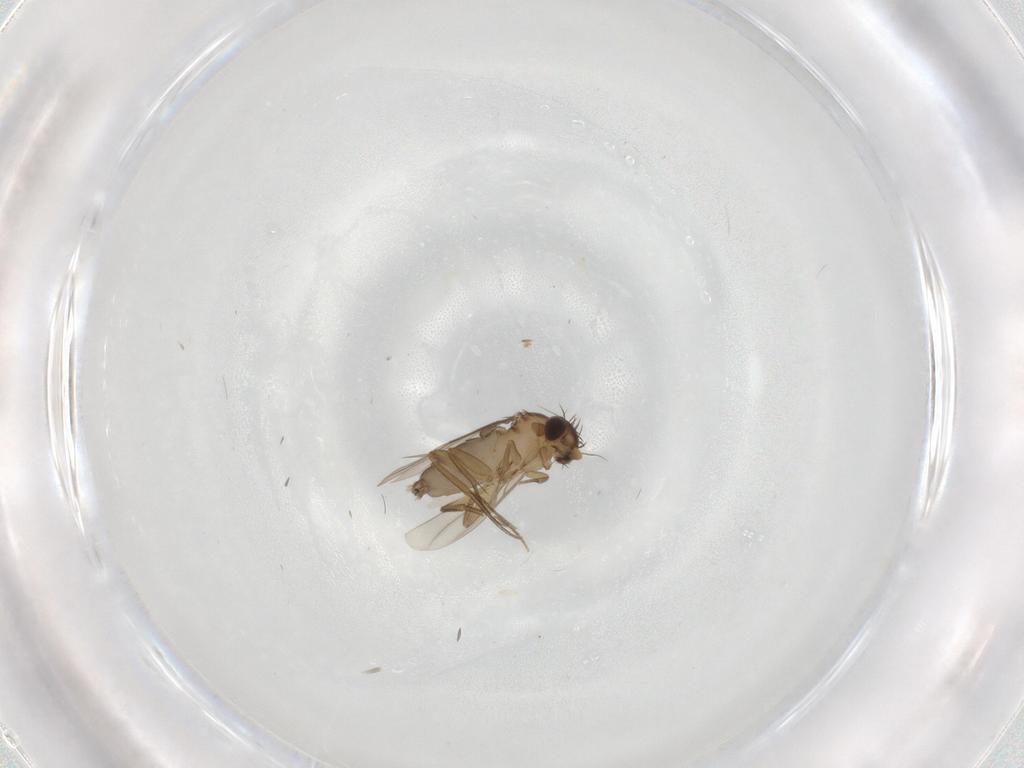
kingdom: Animalia
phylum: Arthropoda
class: Insecta
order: Diptera
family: Phoridae
